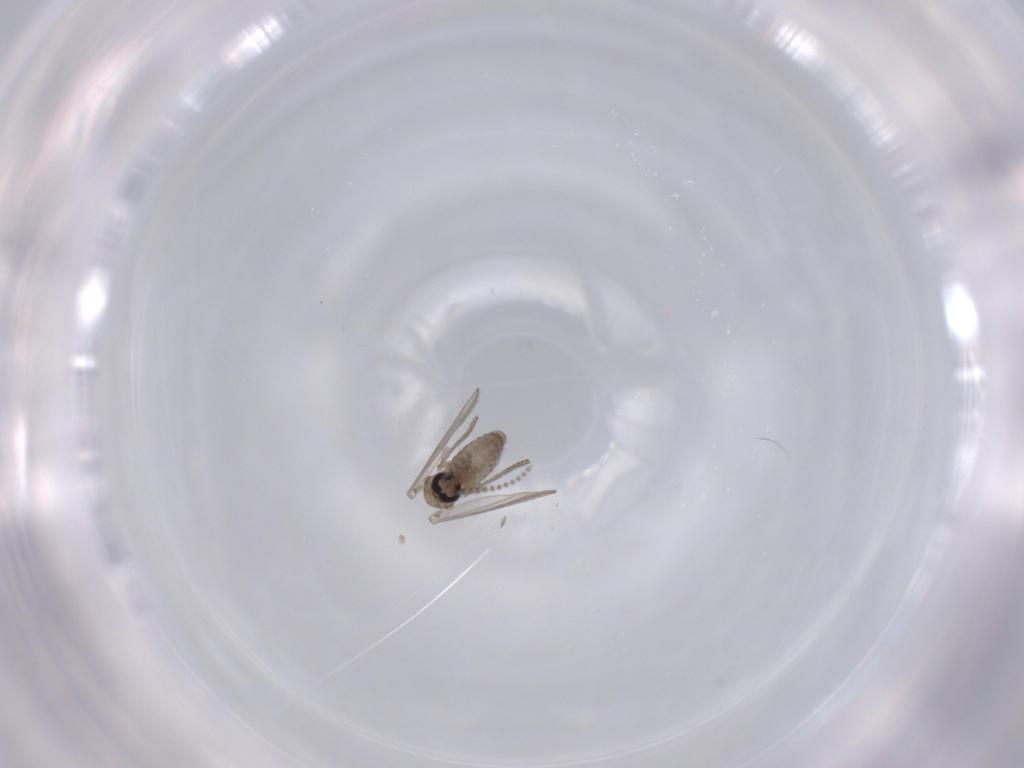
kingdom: Animalia
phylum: Arthropoda
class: Insecta
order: Diptera
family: Psychodidae
